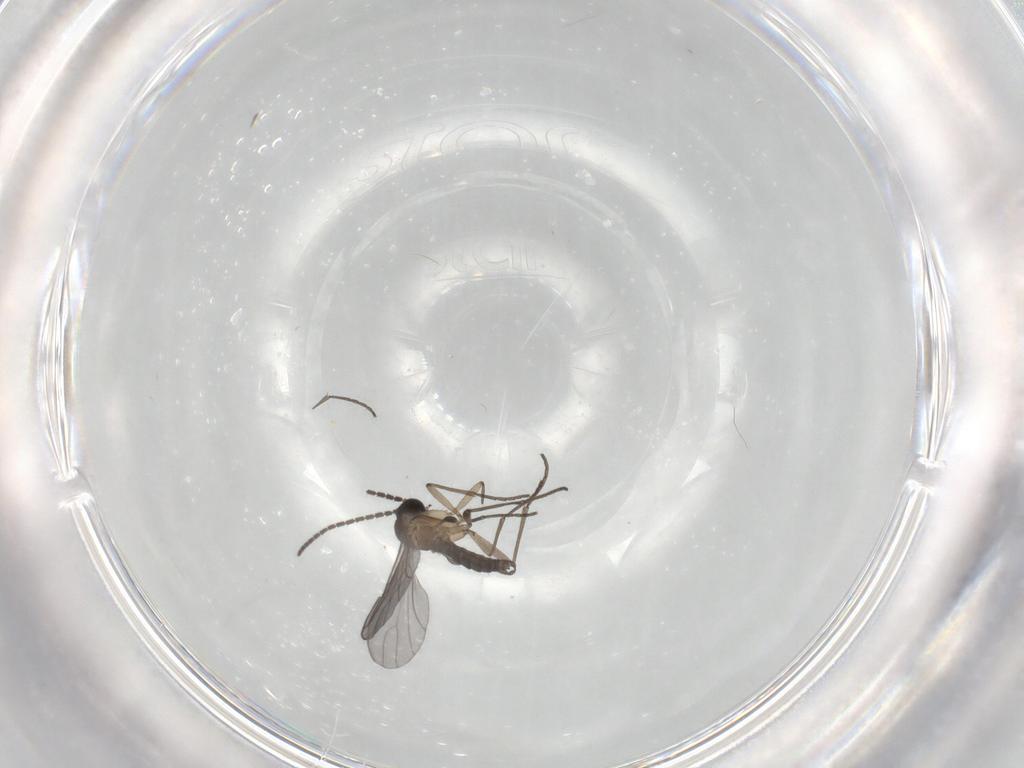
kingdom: Animalia
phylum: Arthropoda
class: Insecta
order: Diptera
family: Sciaridae
